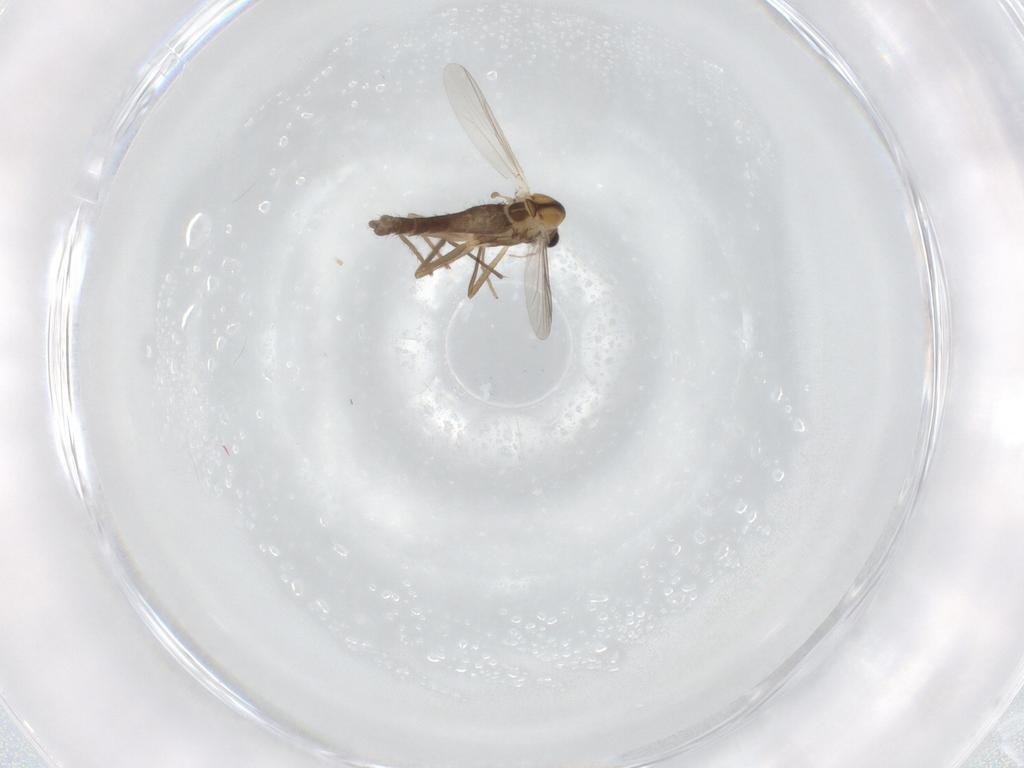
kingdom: Animalia
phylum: Arthropoda
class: Insecta
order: Diptera
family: Chironomidae
